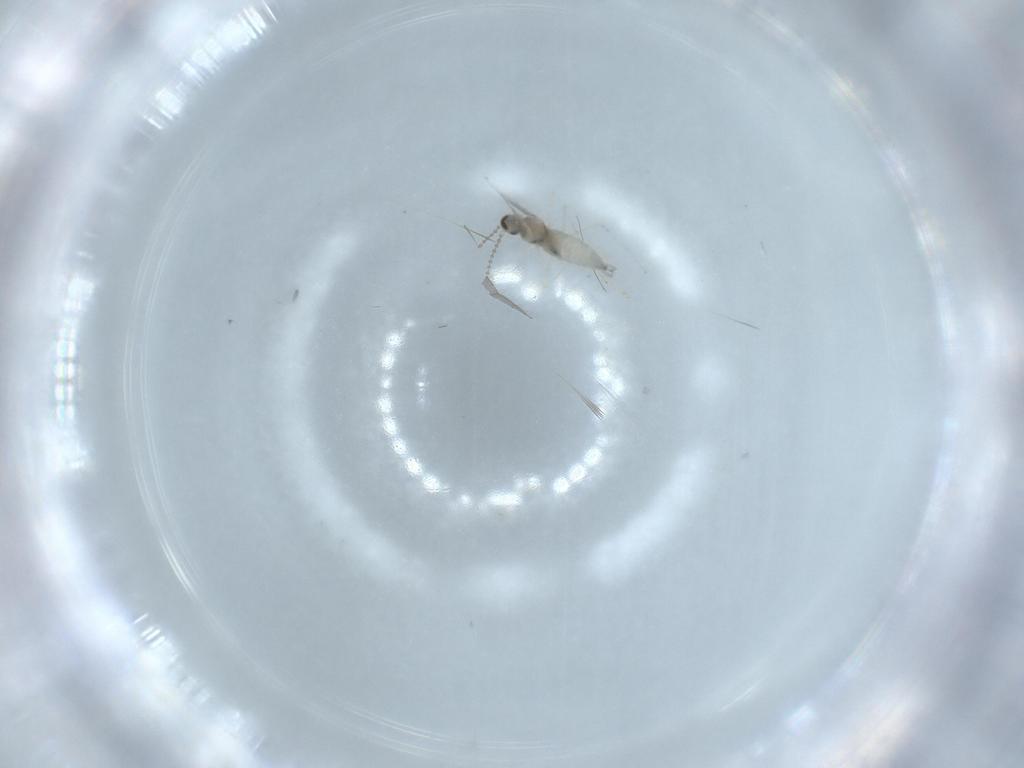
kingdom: Animalia
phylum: Arthropoda
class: Insecta
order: Diptera
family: Sciaridae
